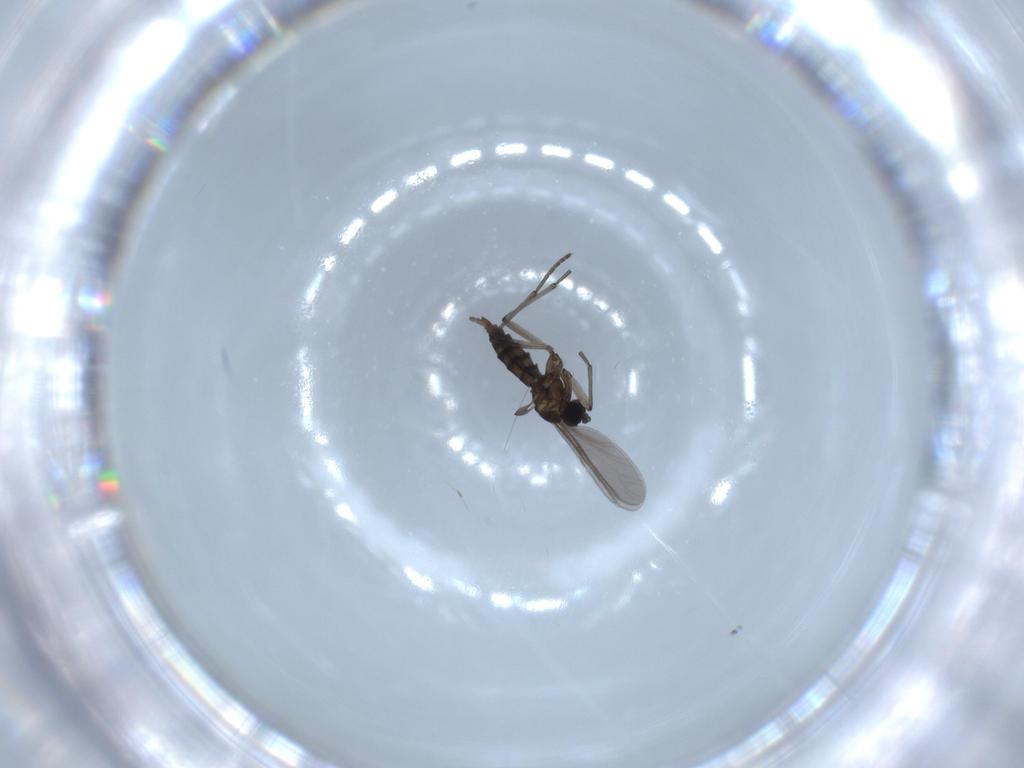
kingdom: Animalia
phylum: Arthropoda
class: Insecta
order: Diptera
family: Sciaridae
